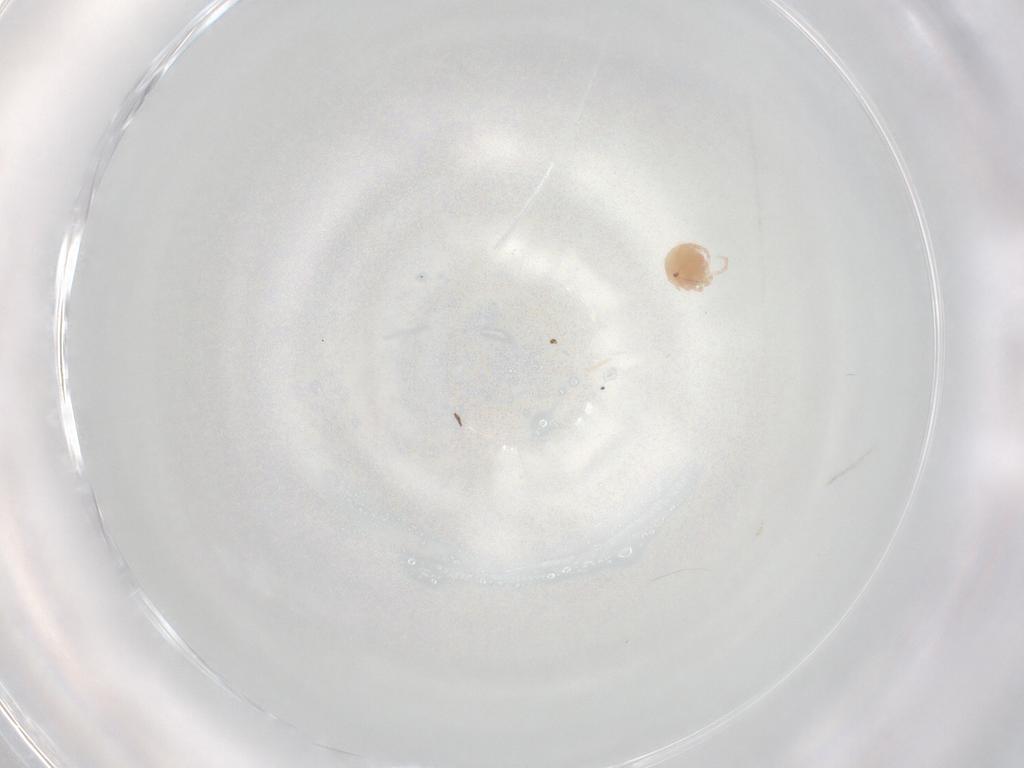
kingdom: Animalia
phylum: Arthropoda
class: Arachnida
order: Trombidiformes
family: Lebertiidae
